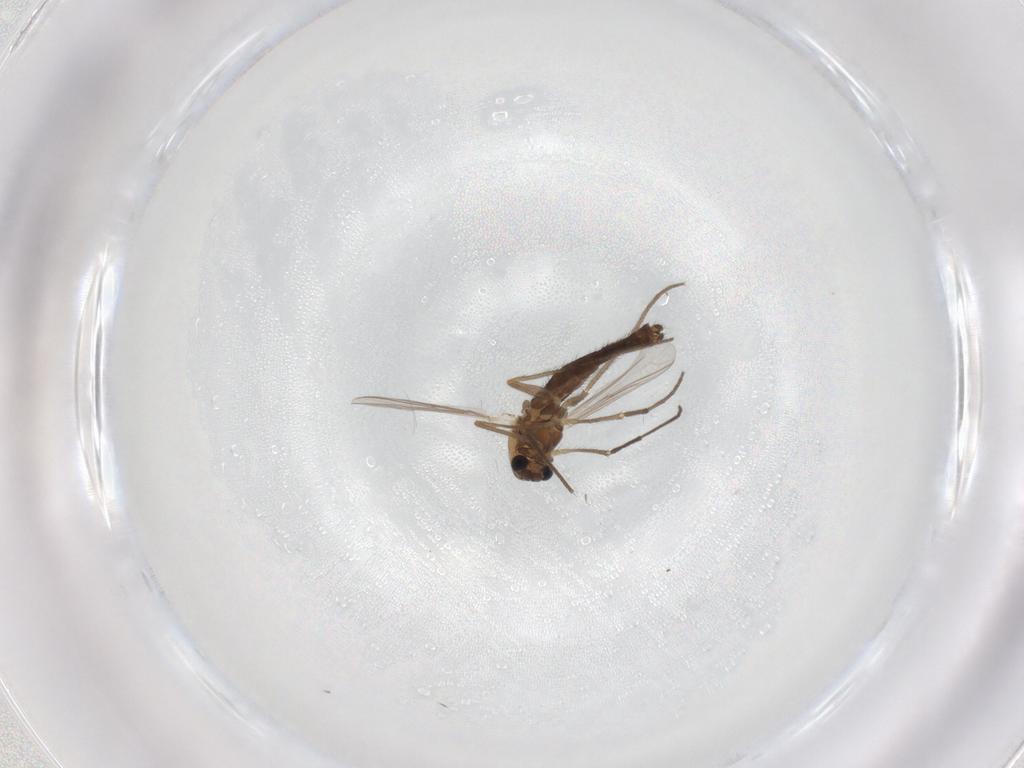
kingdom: Animalia
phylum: Arthropoda
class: Insecta
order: Diptera
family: Chironomidae
